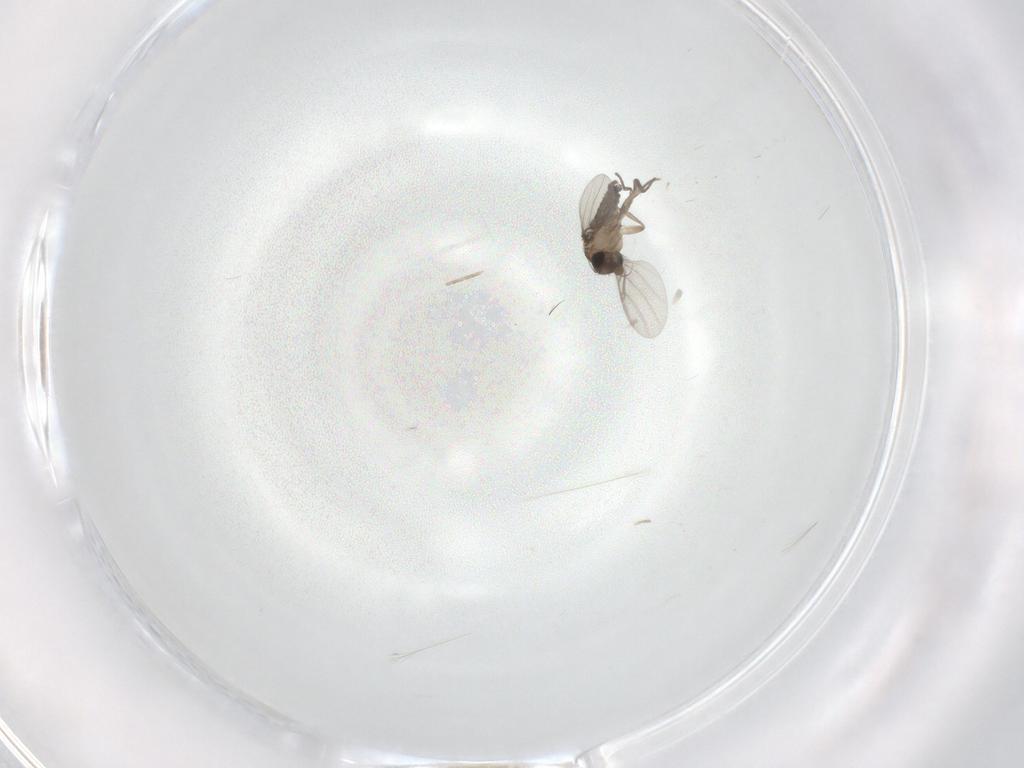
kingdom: Animalia
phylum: Arthropoda
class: Insecta
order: Diptera
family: Phoridae
